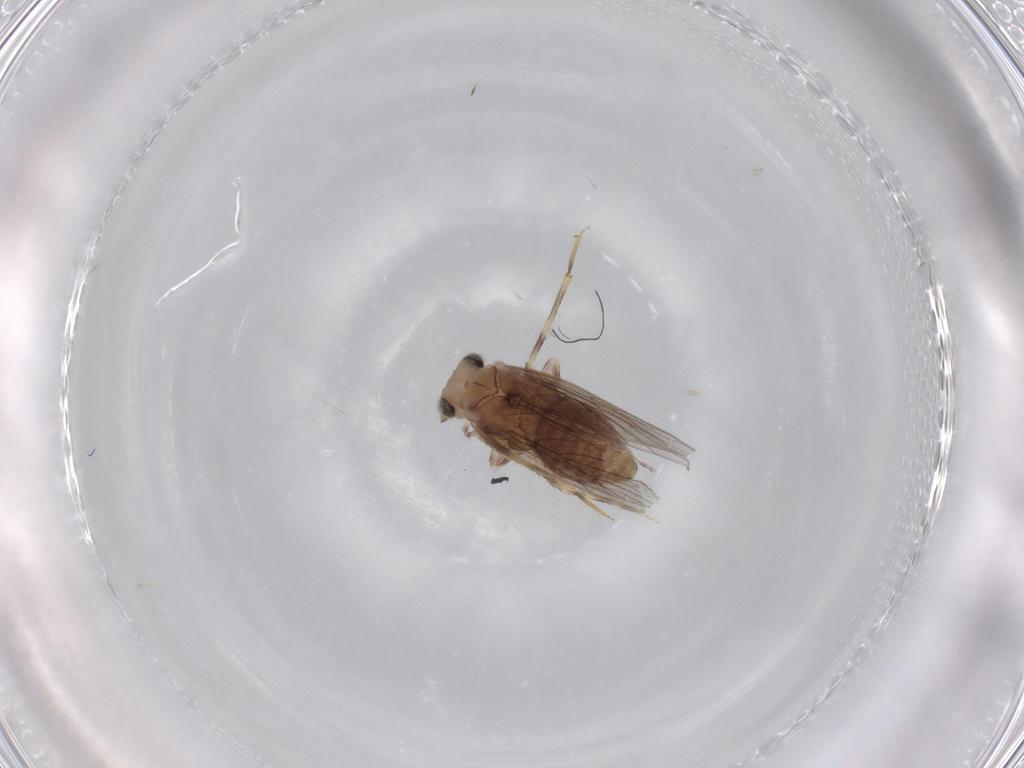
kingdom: Animalia
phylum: Arthropoda
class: Insecta
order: Psocodea
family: Lepidopsocidae
